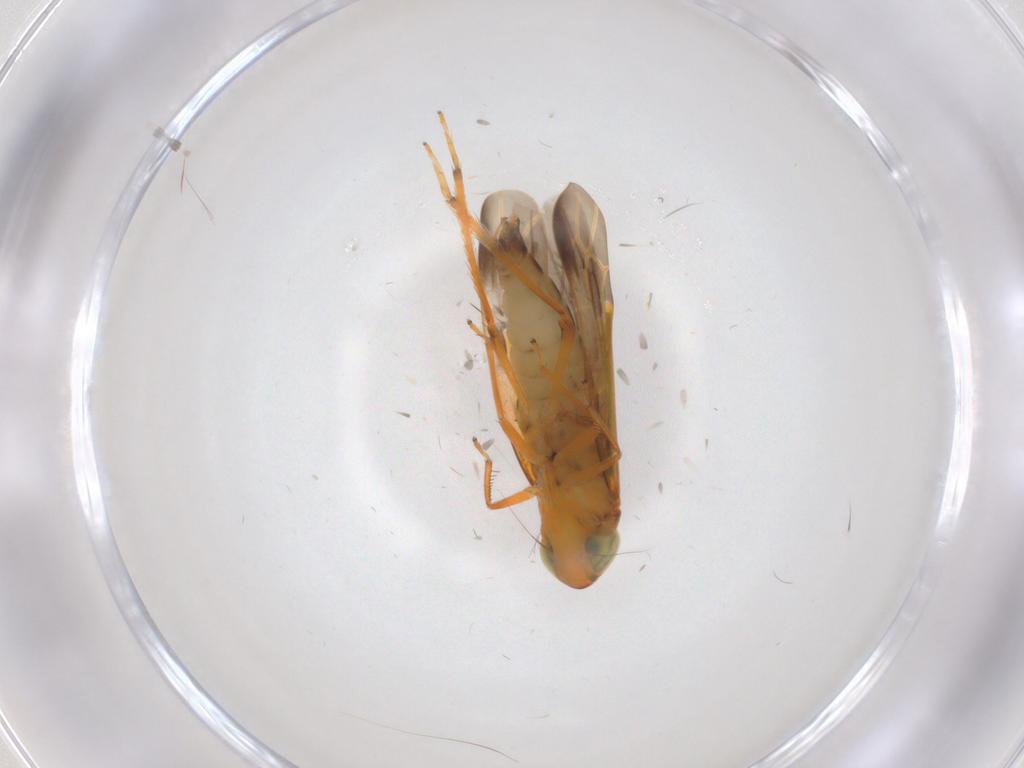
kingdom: Animalia
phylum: Arthropoda
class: Insecta
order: Hemiptera
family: Cicadellidae
